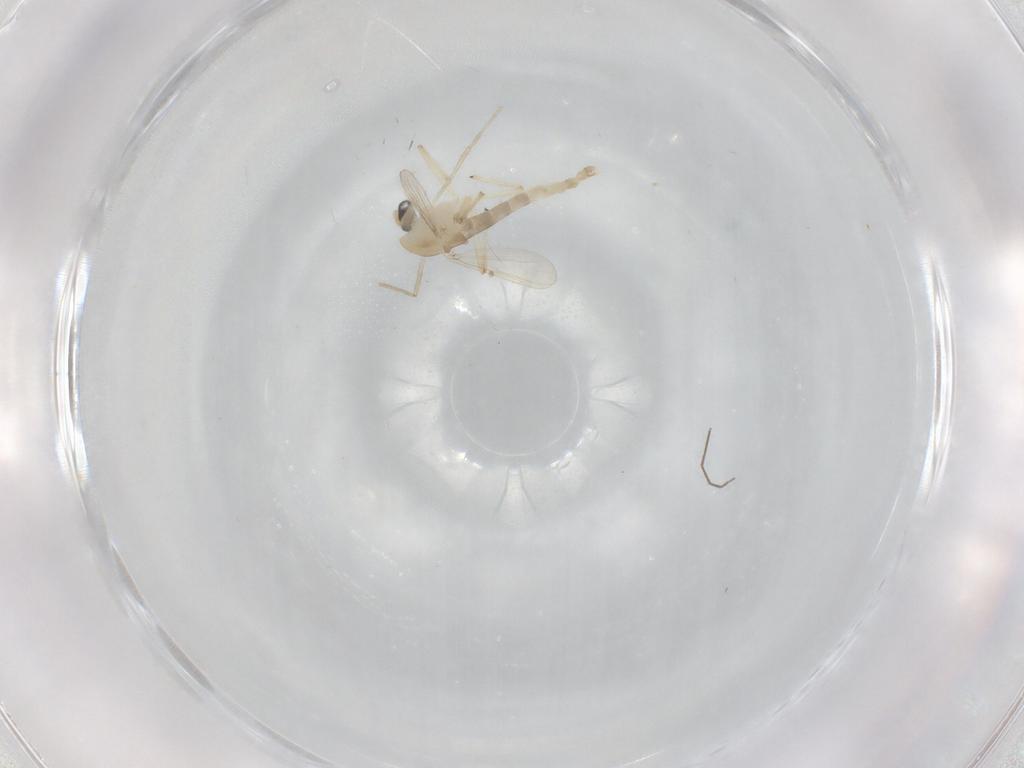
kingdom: Animalia
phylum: Arthropoda
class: Insecta
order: Diptera
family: Chironomidae
